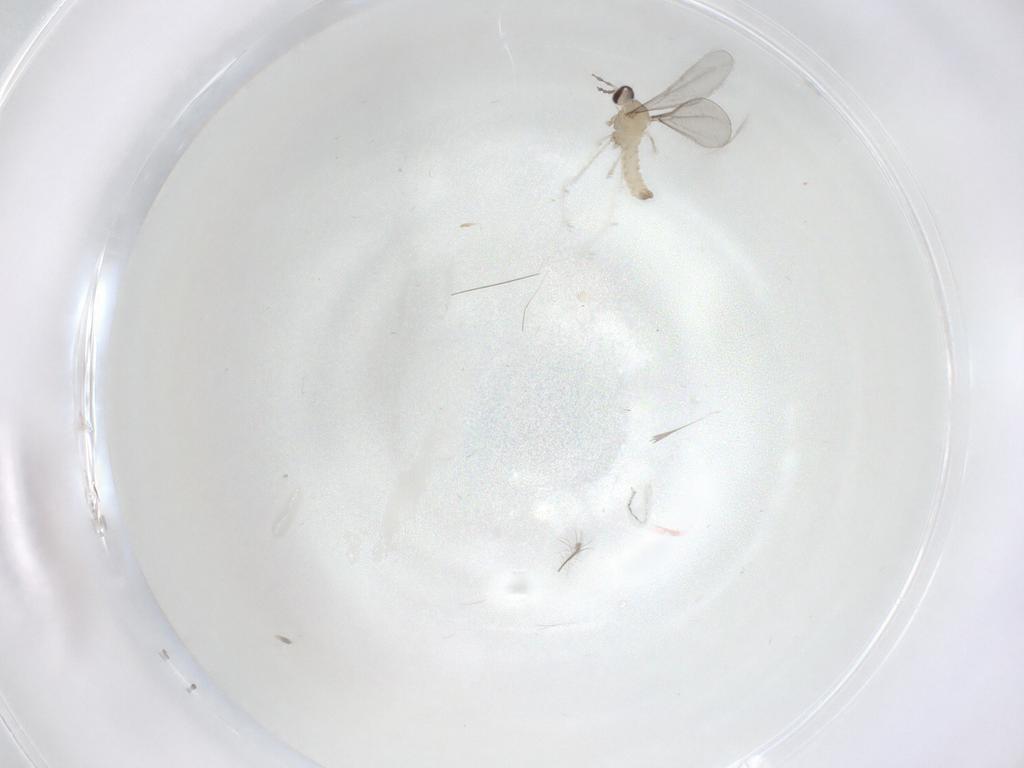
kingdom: Animalia
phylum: Arthropoda
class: Insecta
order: Diptera
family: Cecidomyiidae
